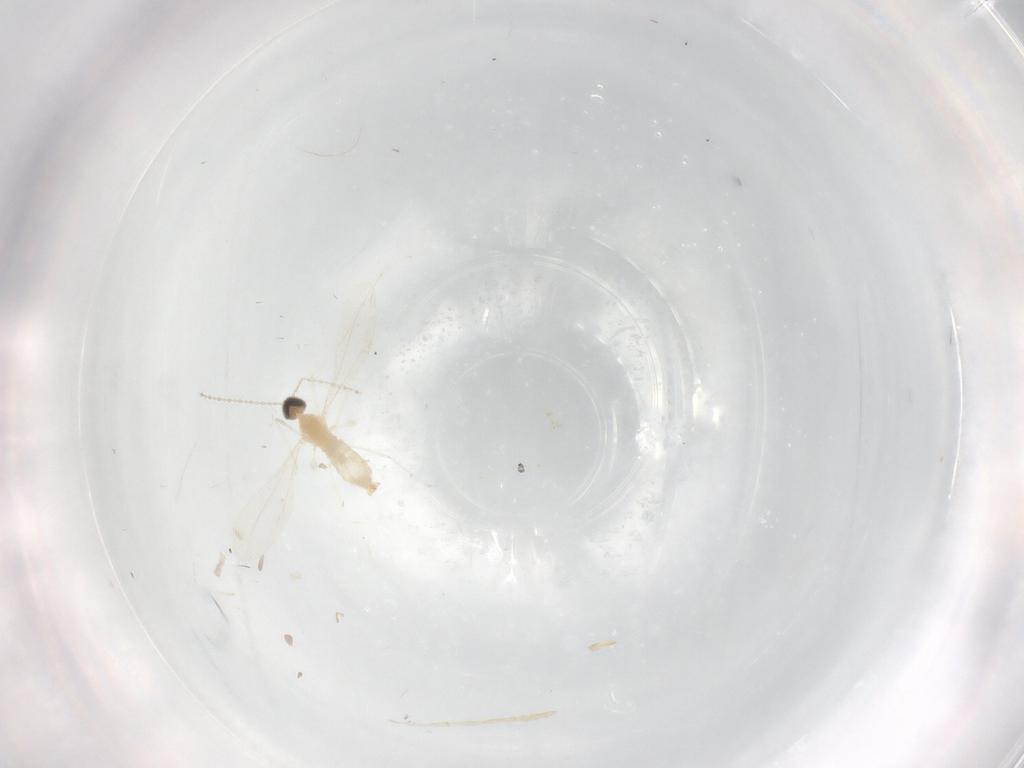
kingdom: Animalia
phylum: Arthropoda
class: Insecta
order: Diptera
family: Cecidomyiidae
